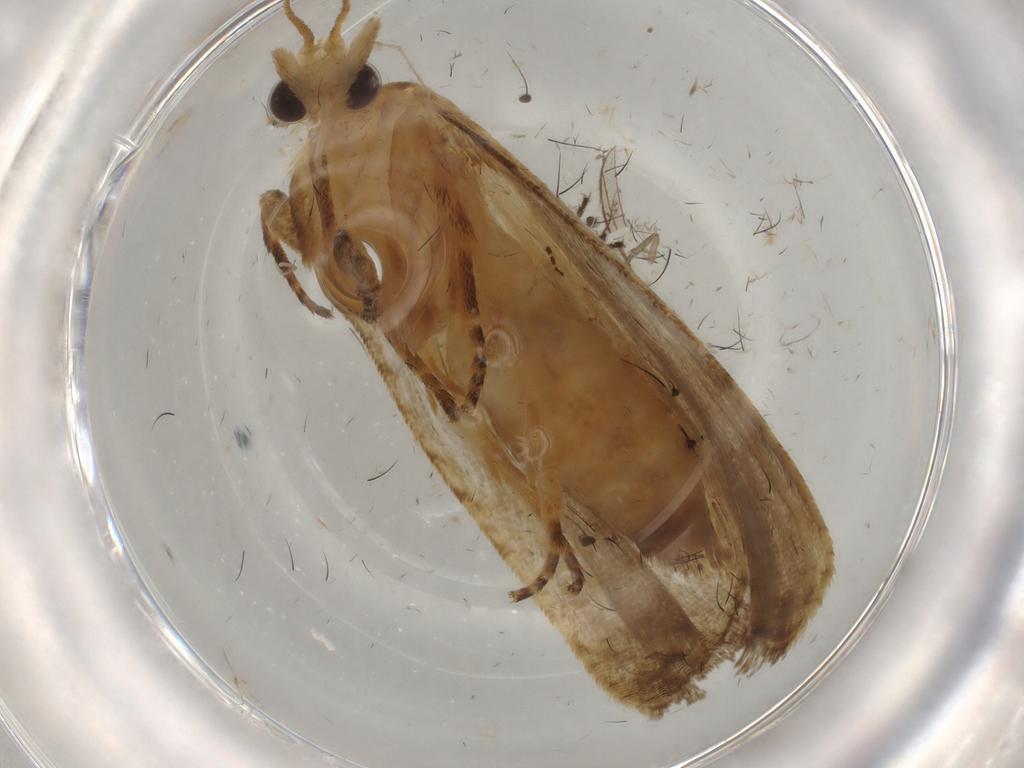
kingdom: Animalia
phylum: Arthropoda
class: Insecta
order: Lepidoptera
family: Tortricidae
